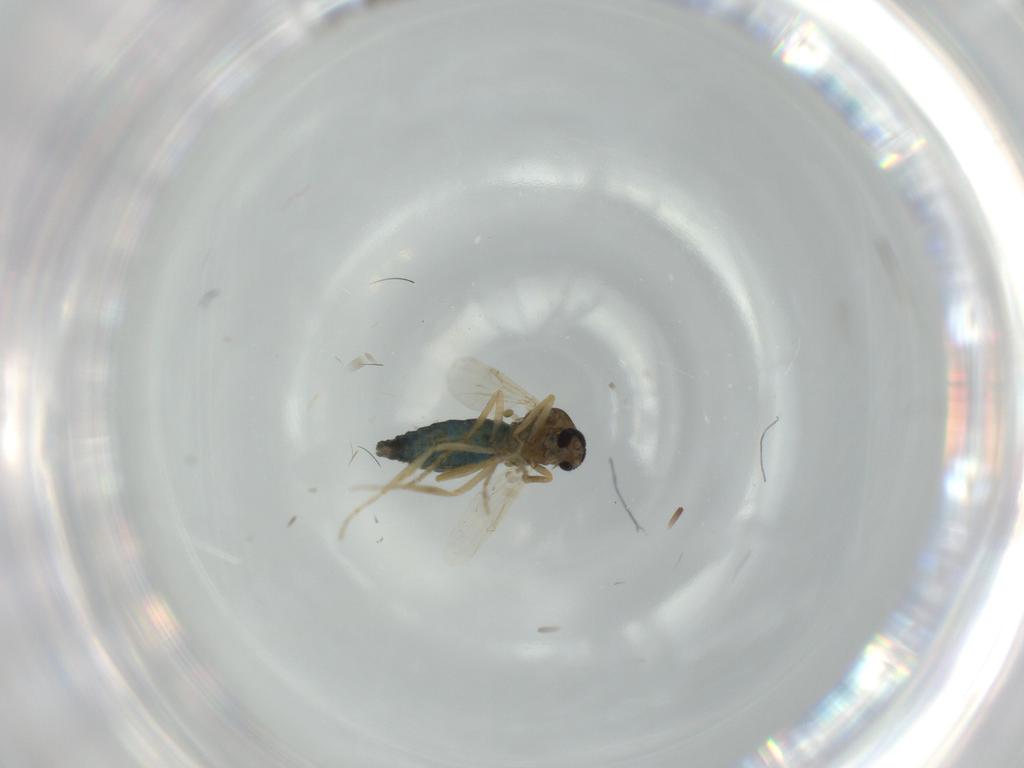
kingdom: Animalia
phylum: Arthropoda
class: Insecta
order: Diptera
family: Ceratopogonidae
